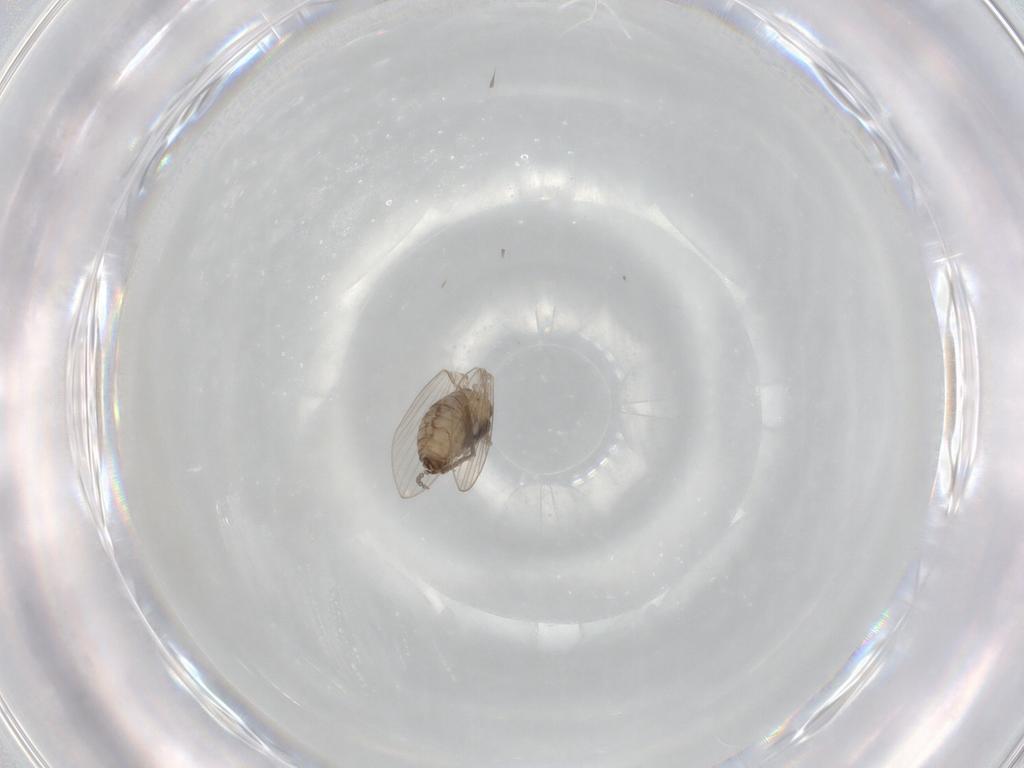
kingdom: Animalia
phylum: Arthropoda
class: Insecta
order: Diptera
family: Psychodidae
